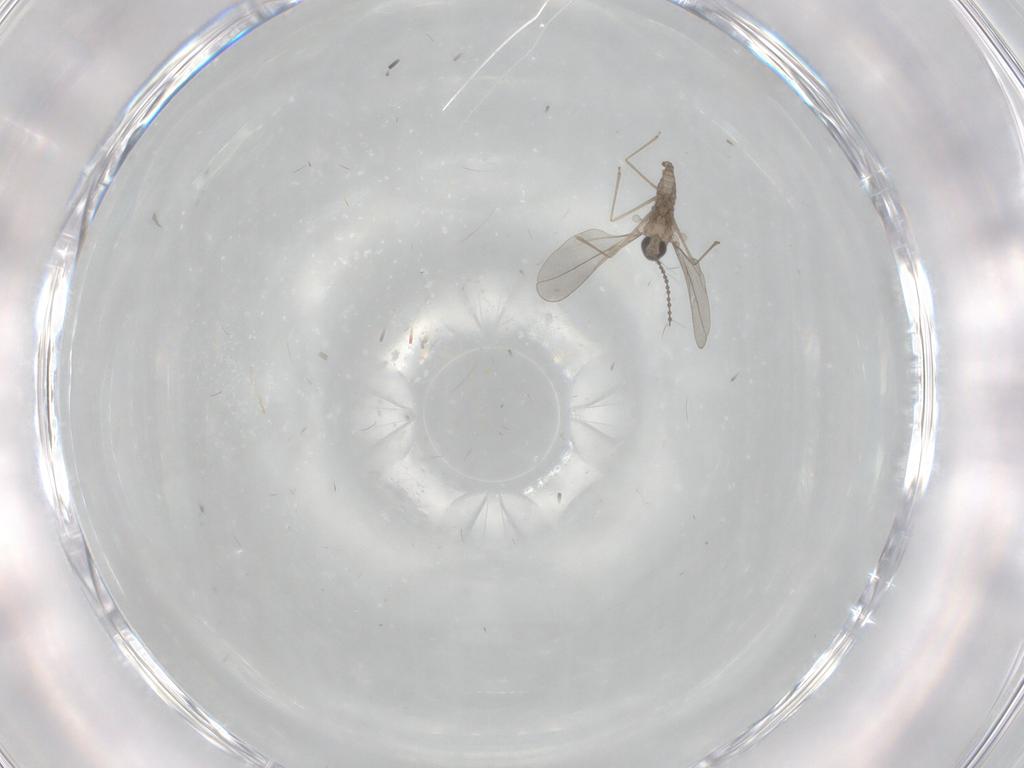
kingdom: Animalia
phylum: Arthropoda
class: Insecta
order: Diptera
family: Cecidomyiidae
